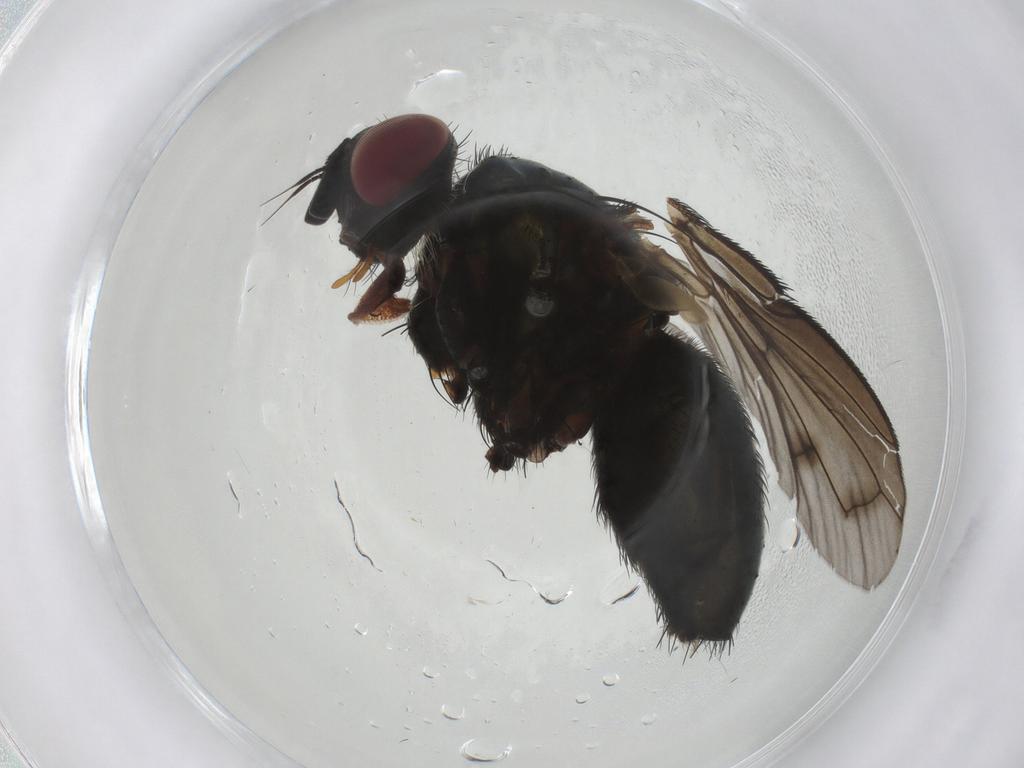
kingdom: Animalia
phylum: Arthropoda
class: Insecta
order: Diptera
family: Tachinidae
